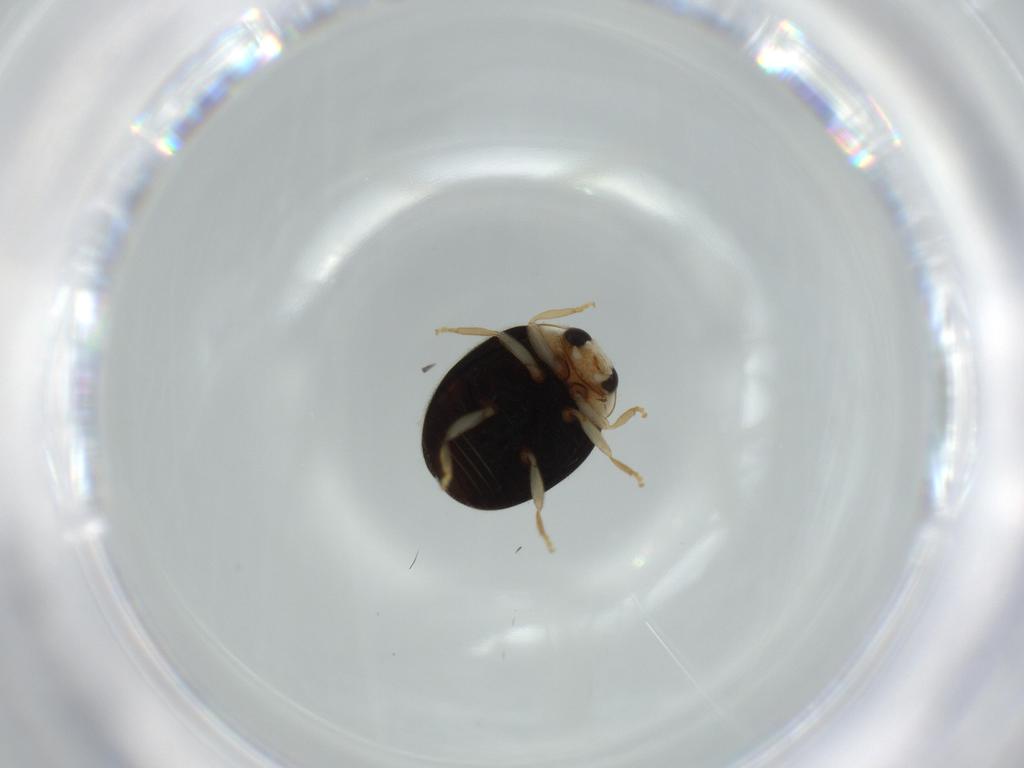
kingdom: Animalia
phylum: Arthropoda
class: Insecta
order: Coleoptera
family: Coccinellidae
